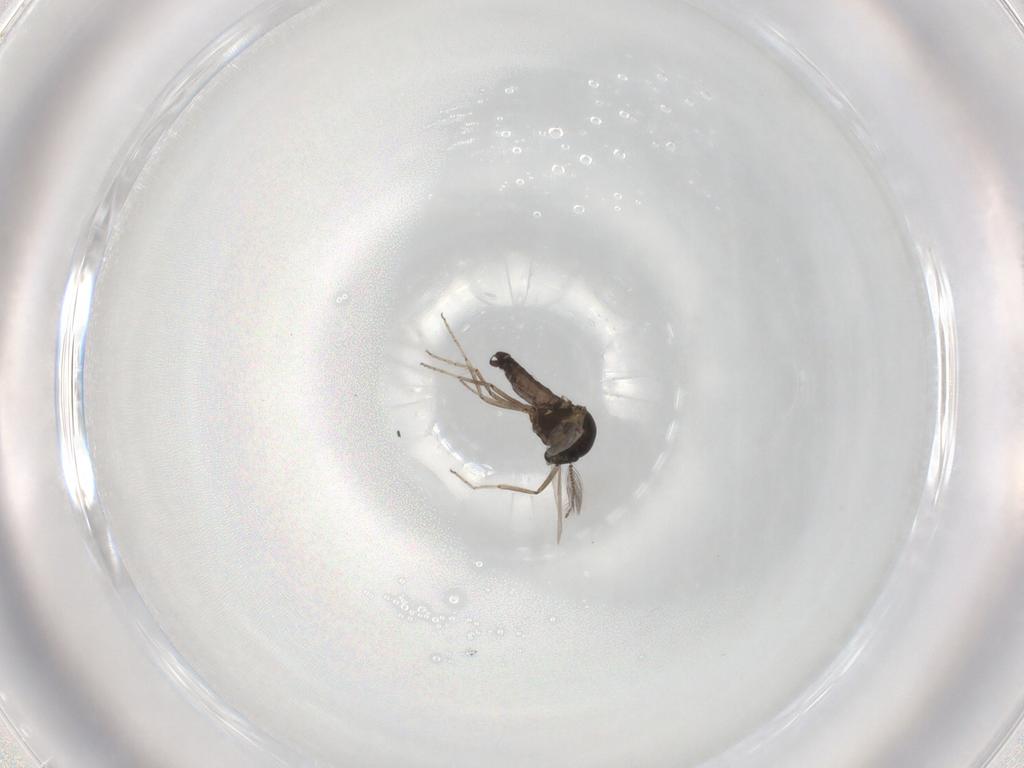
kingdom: Animalia
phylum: Arthropoda
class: Insecta
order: Diptera
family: Ceratopogonidae
